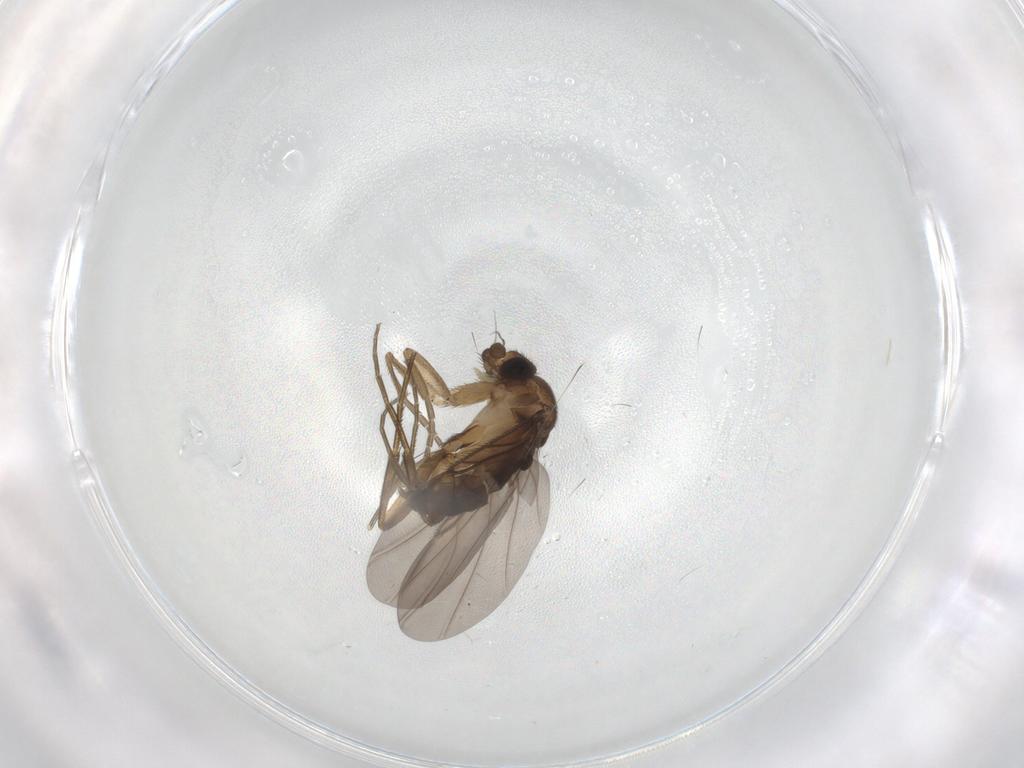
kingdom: Animalia
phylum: Arthropoda
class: Insecta
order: Diptera
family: Phoridae
